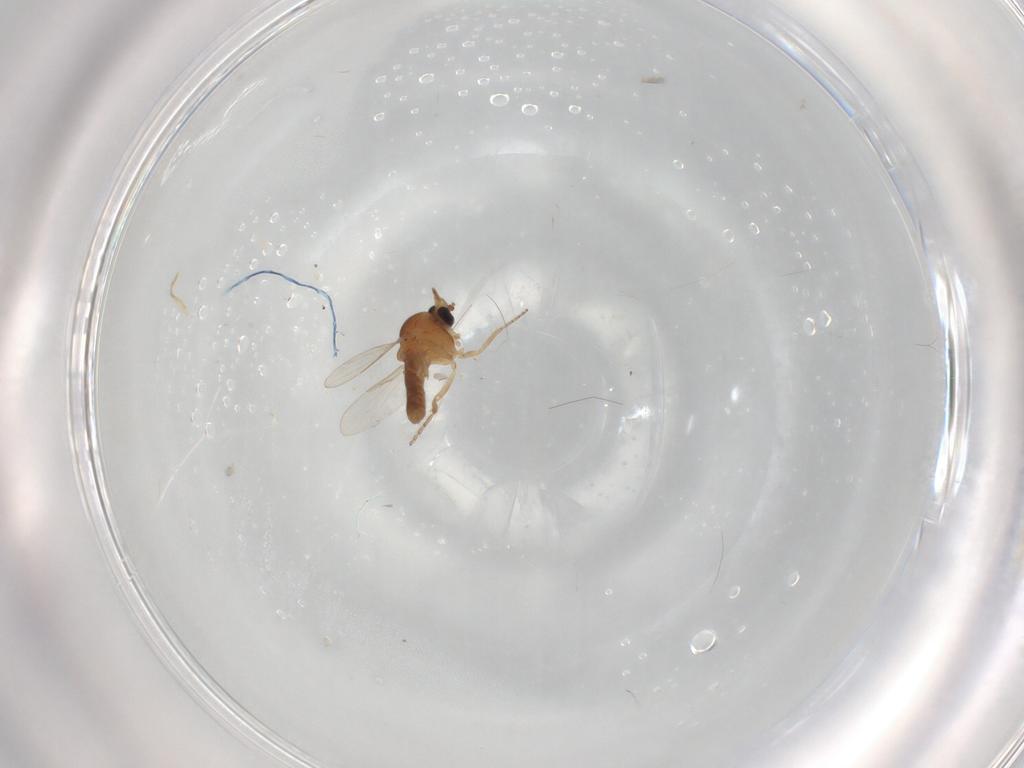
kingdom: Animalia
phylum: Arthropoda
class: Insecta
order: Diptera
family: Ceratopogonidae
